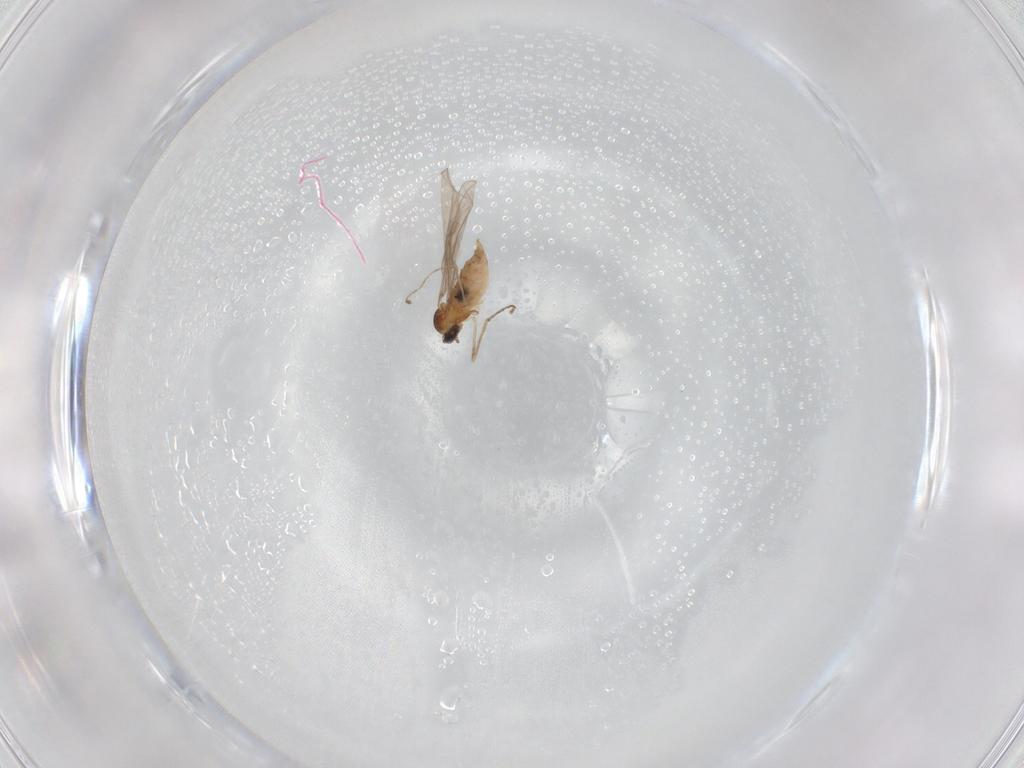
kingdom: Animalia
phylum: Arthropoda
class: Insecta
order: Diptera
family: Cecidomyiidae
